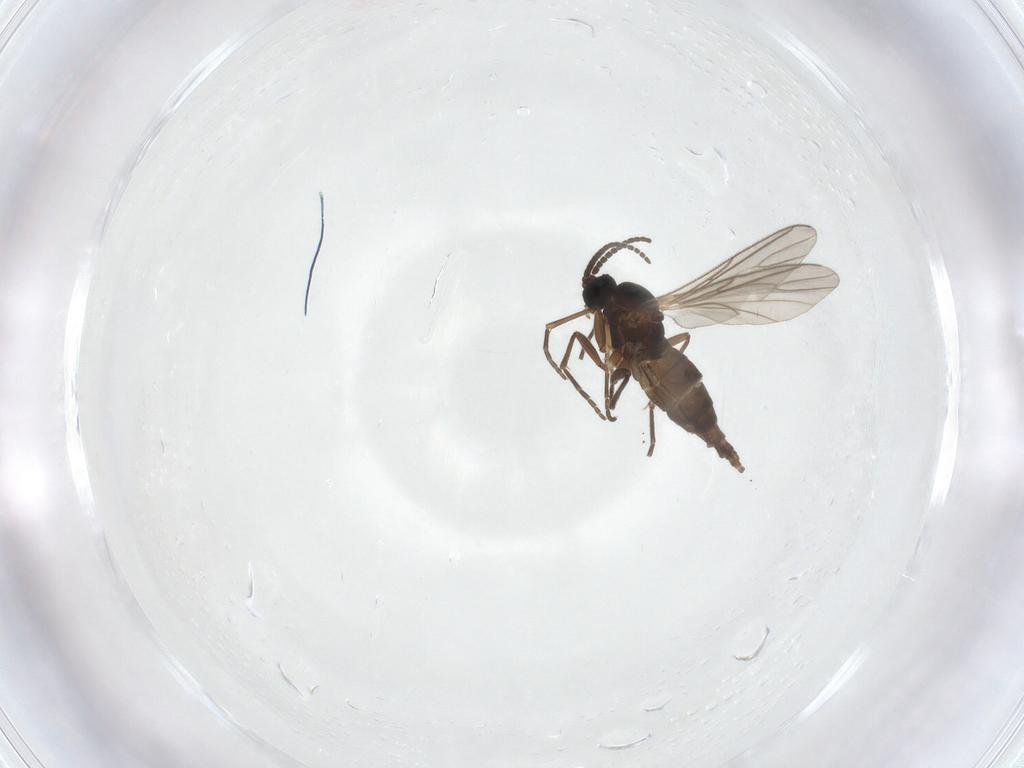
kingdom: Animalia
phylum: Arthropoda
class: Insecta
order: Diptera
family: Sciaridae
